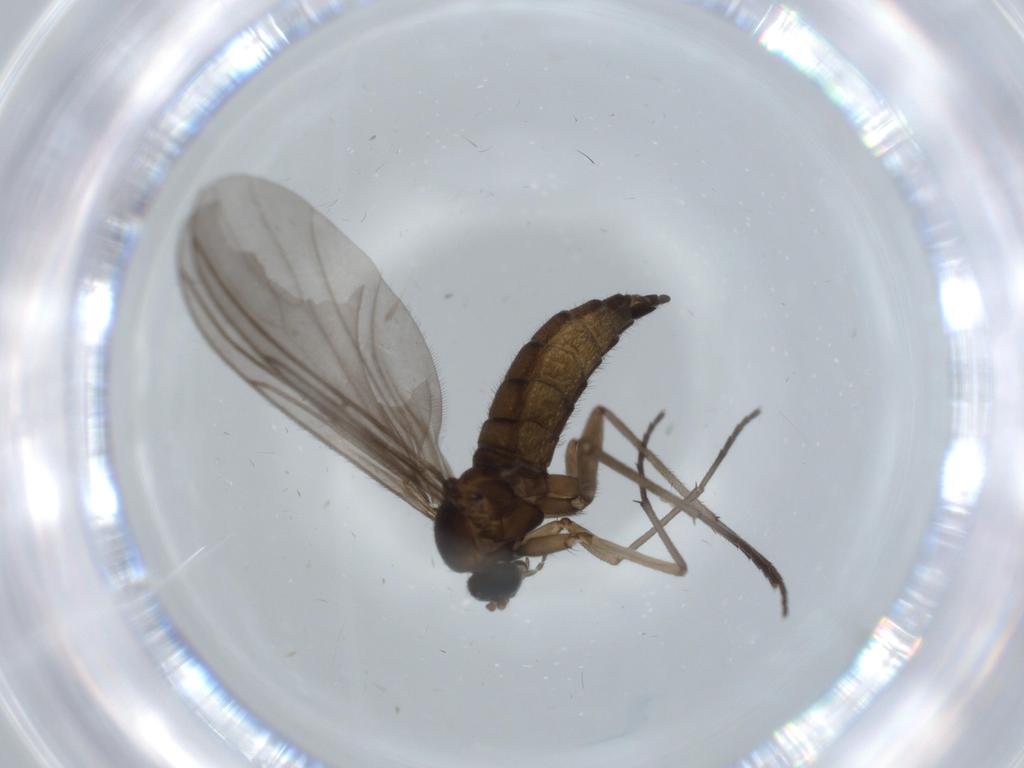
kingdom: Animalia
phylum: Arthropoda
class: Insecta
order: Diptera
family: Sciaridae
